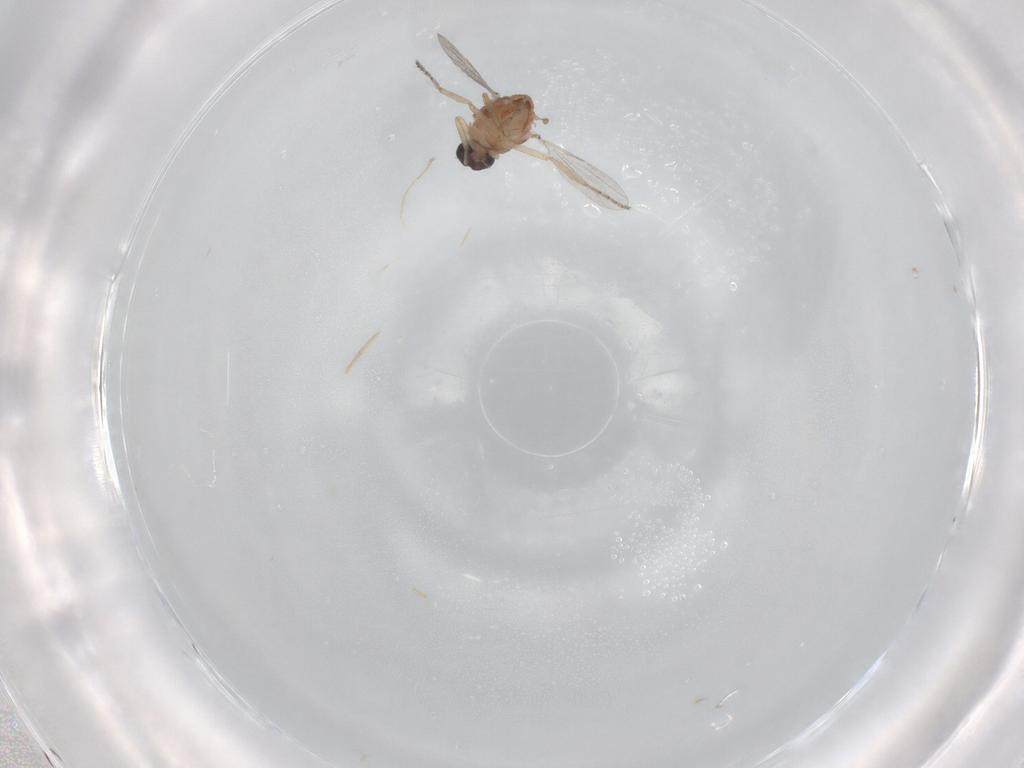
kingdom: Animalia
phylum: Arthropoda
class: Insecta
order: Diptera
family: Ceratopogonidae
